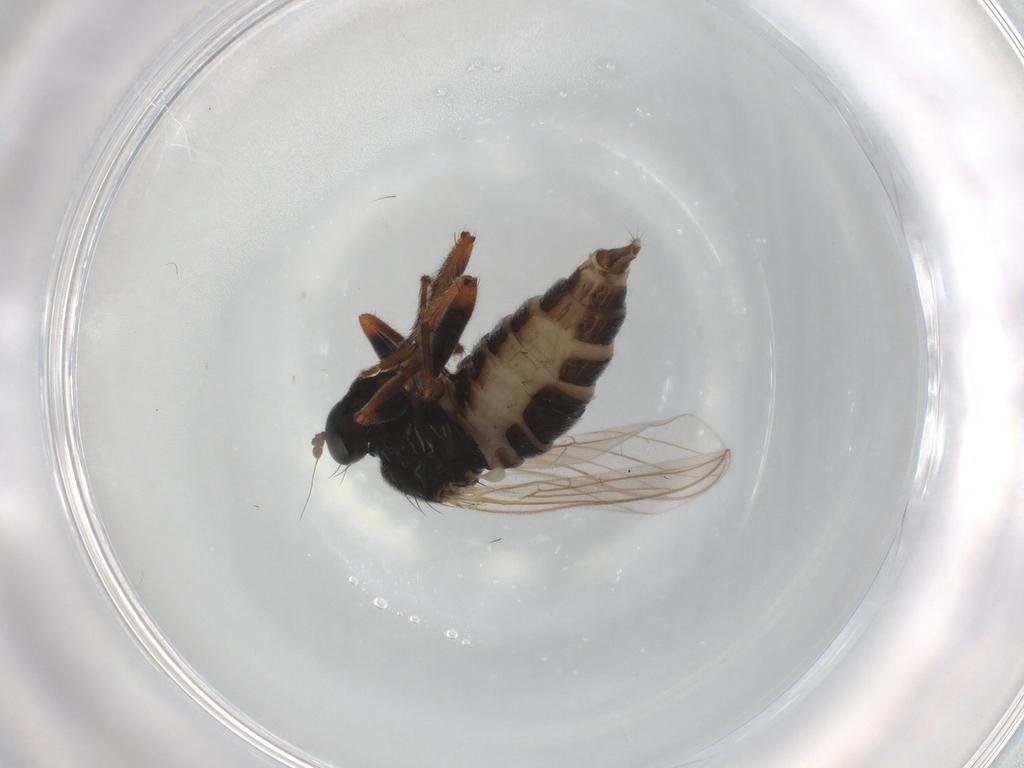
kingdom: Animalia
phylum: Arthropoda
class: Insecta
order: Diptera
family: Hybotidae
